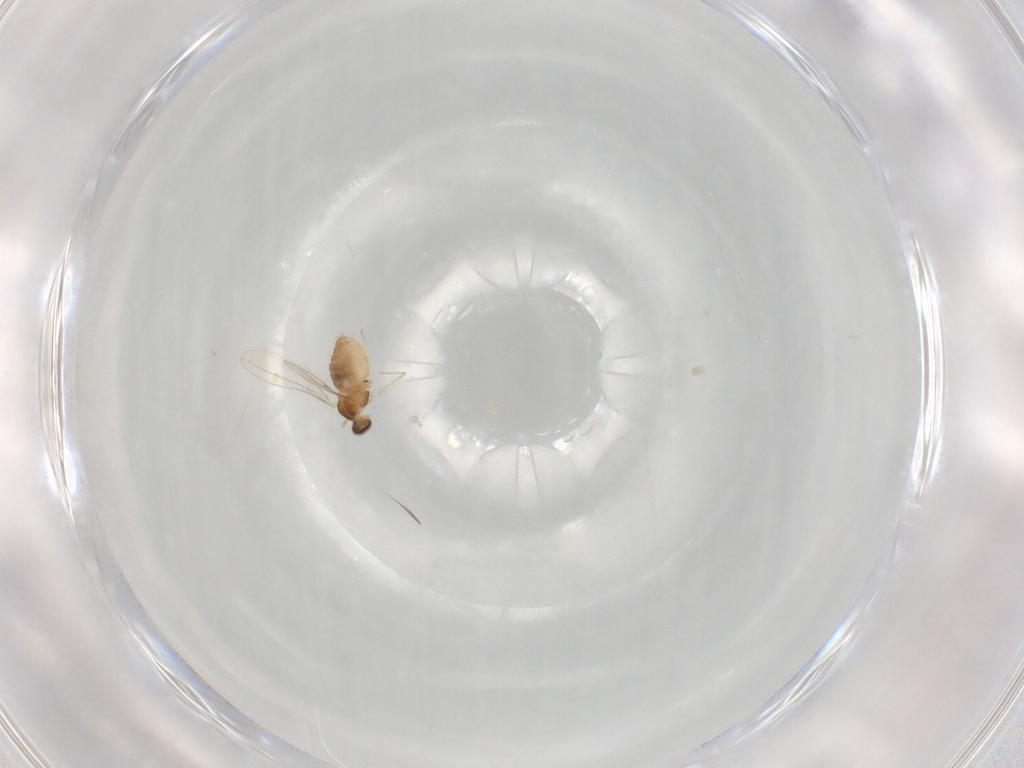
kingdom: Animalia
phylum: Arthropoda
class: Insecta
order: Diptera
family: Cecidomyiidae
